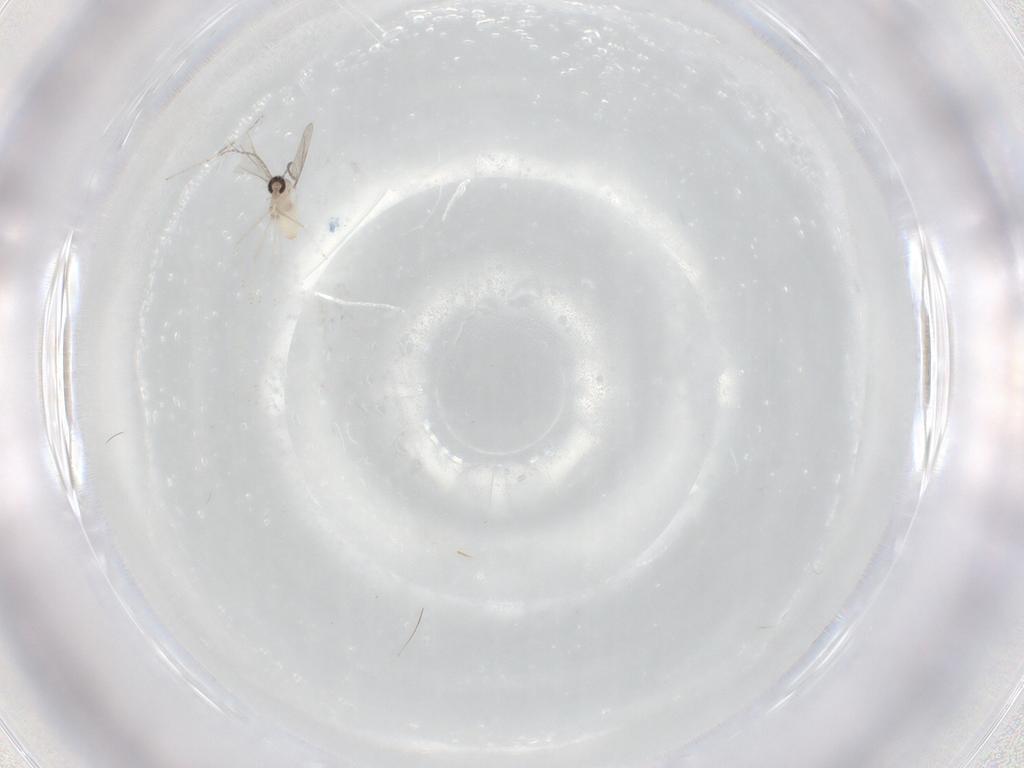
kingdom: Animalia
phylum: Arthropoda
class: Insecta
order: Diptera
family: Cecidomyiidae
